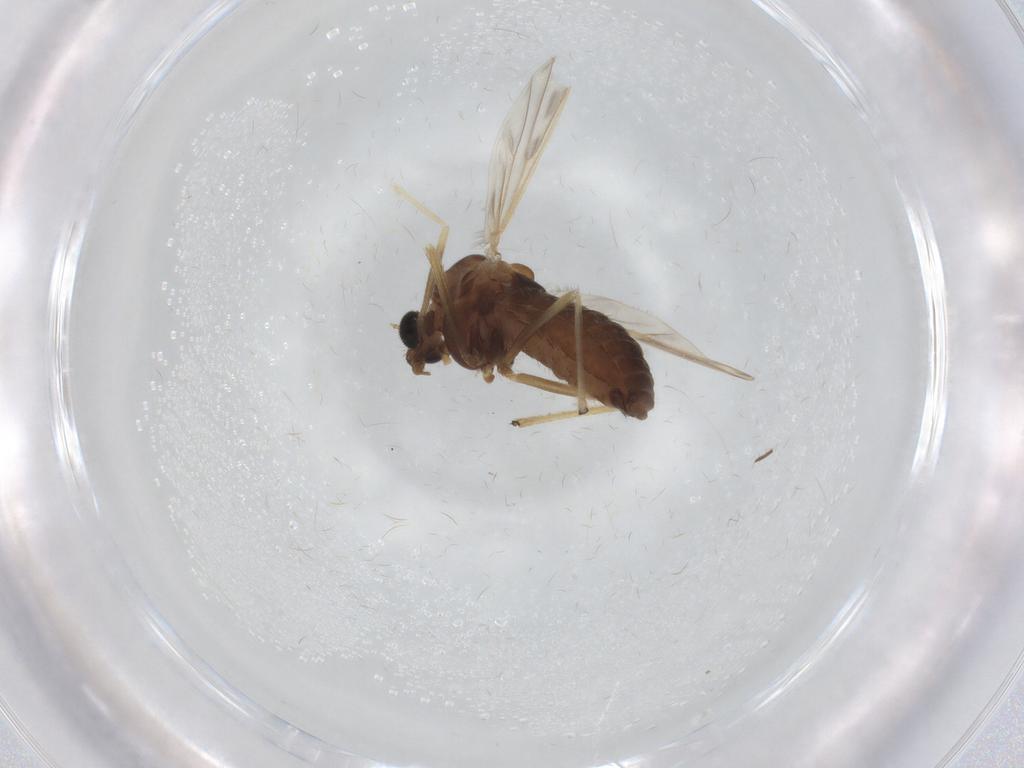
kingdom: Animalia
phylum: Arthropoda
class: Insecta
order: Diptera
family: Chironomidae
